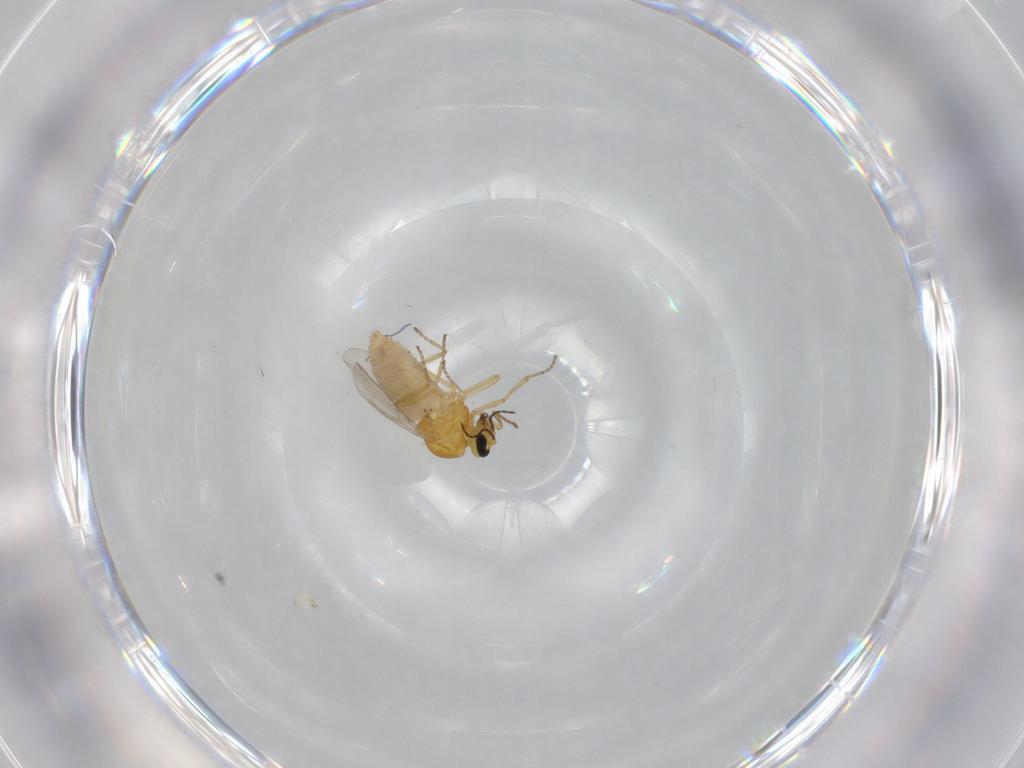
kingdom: Animalia
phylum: Arthropoda
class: Insecta
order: Diptera
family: Ceratopogonidae
